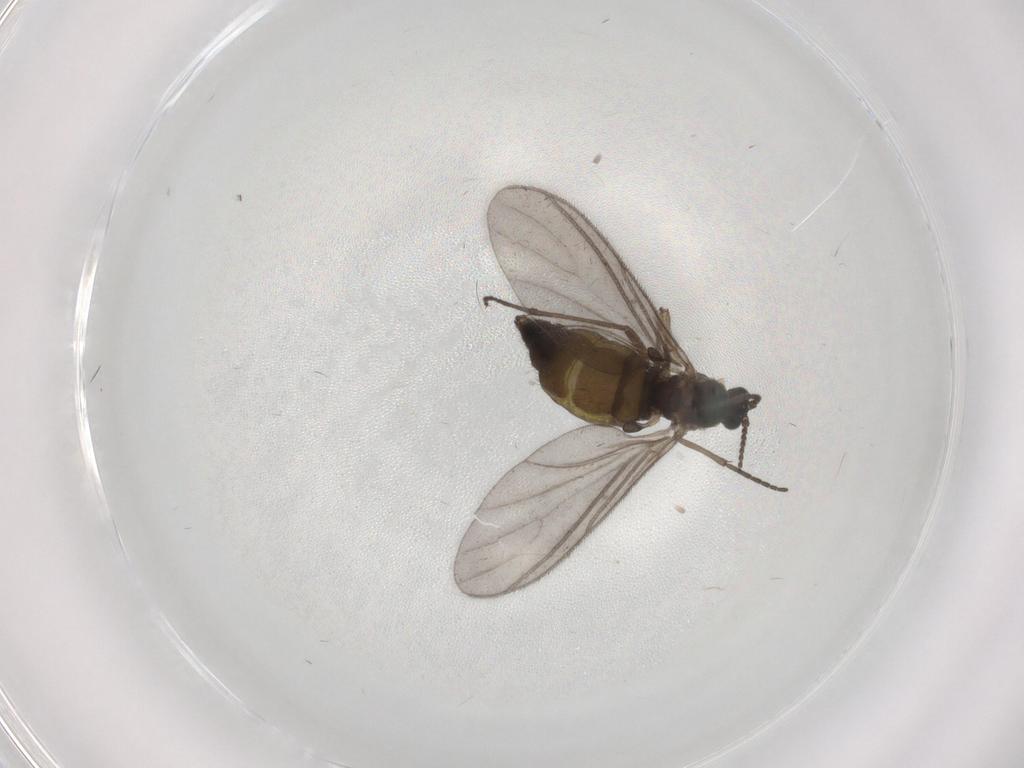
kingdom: Animalia
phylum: Arthropoda
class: Insecta
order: Diptera
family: Sciaridae
